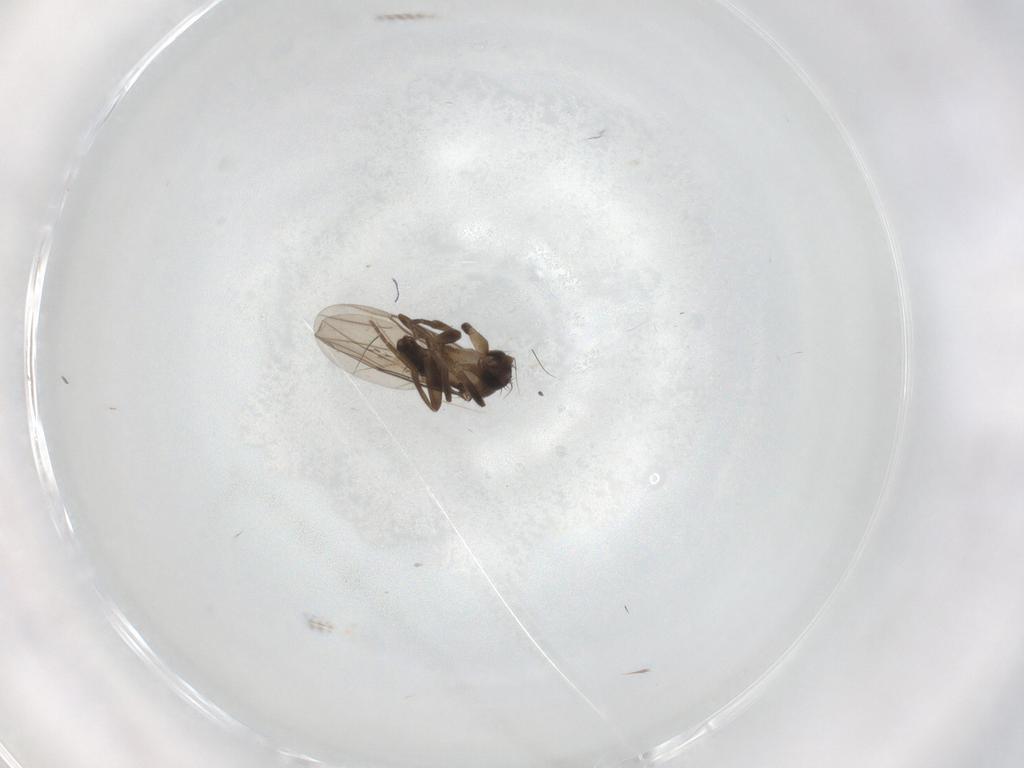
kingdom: Animalia
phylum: Arthropoda
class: Insecta
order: Diptera
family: Phoridae
